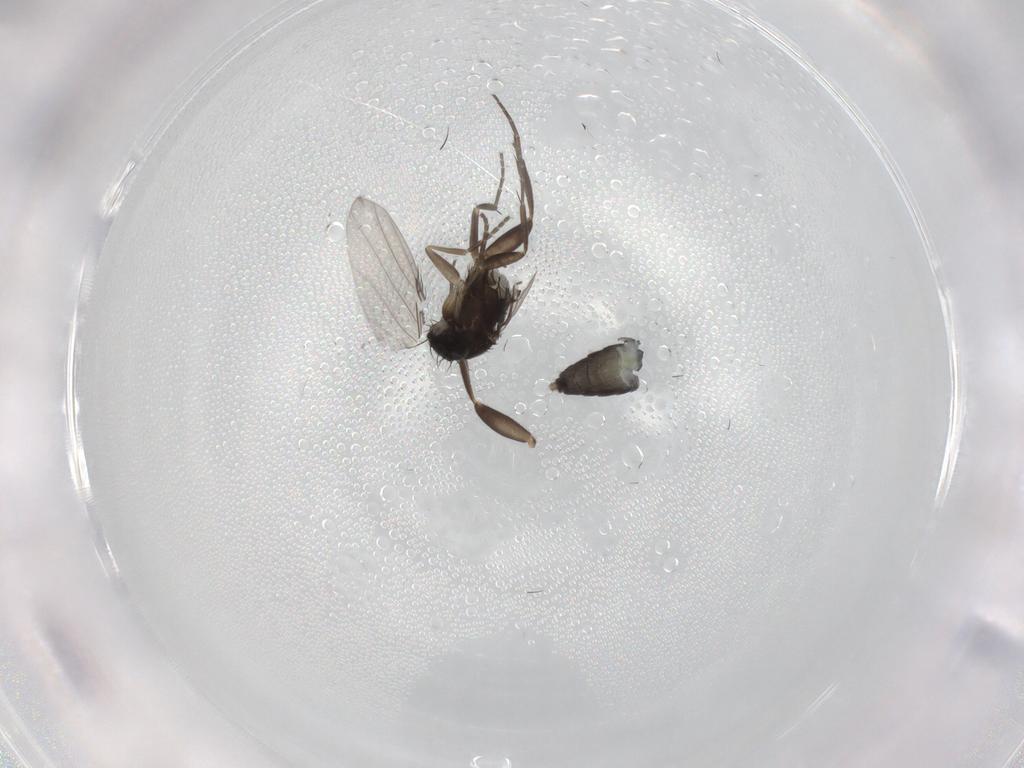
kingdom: Animalia
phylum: Arthropoda
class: Insecta
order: Diptera
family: Phoridae
